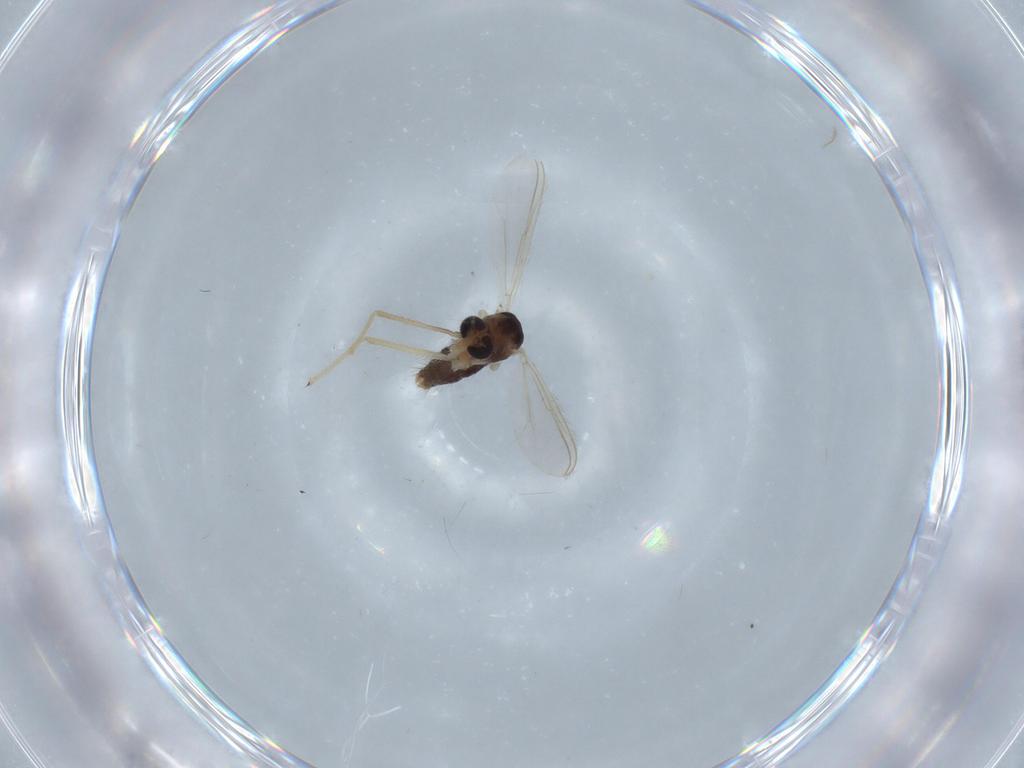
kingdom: Animalia
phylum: Arthropoda
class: Insecta
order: Diptera
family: Chironomidae
